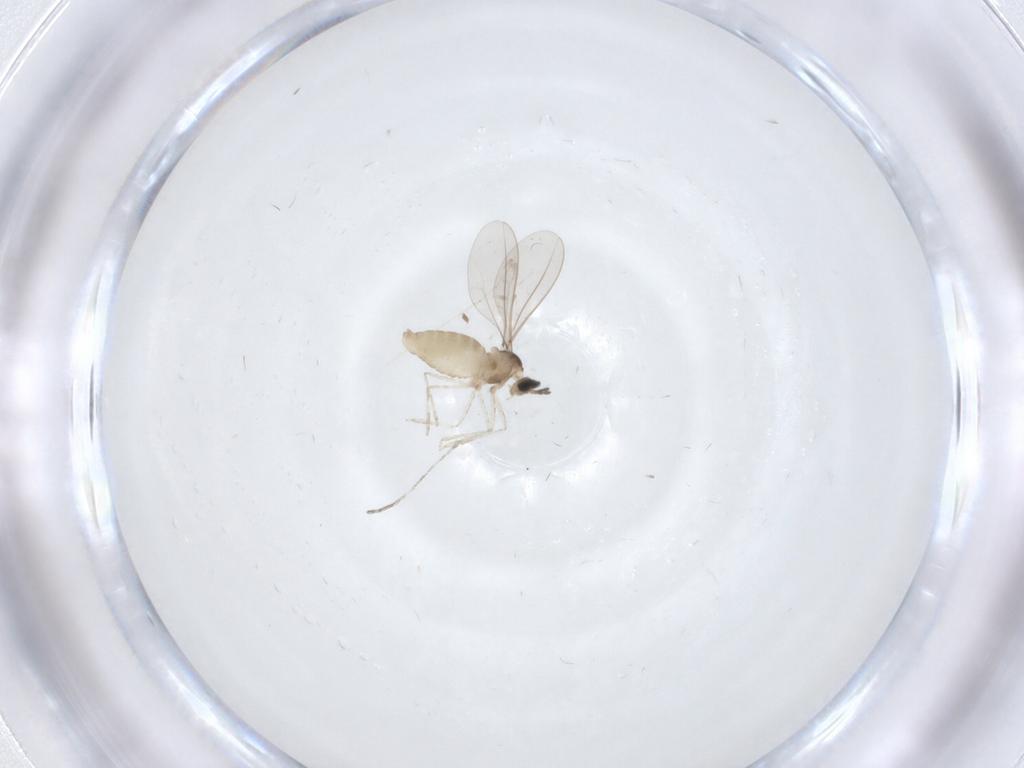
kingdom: Animalia
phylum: Arthropoda
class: Insecta
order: Diptera
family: Cecidomyiidae
